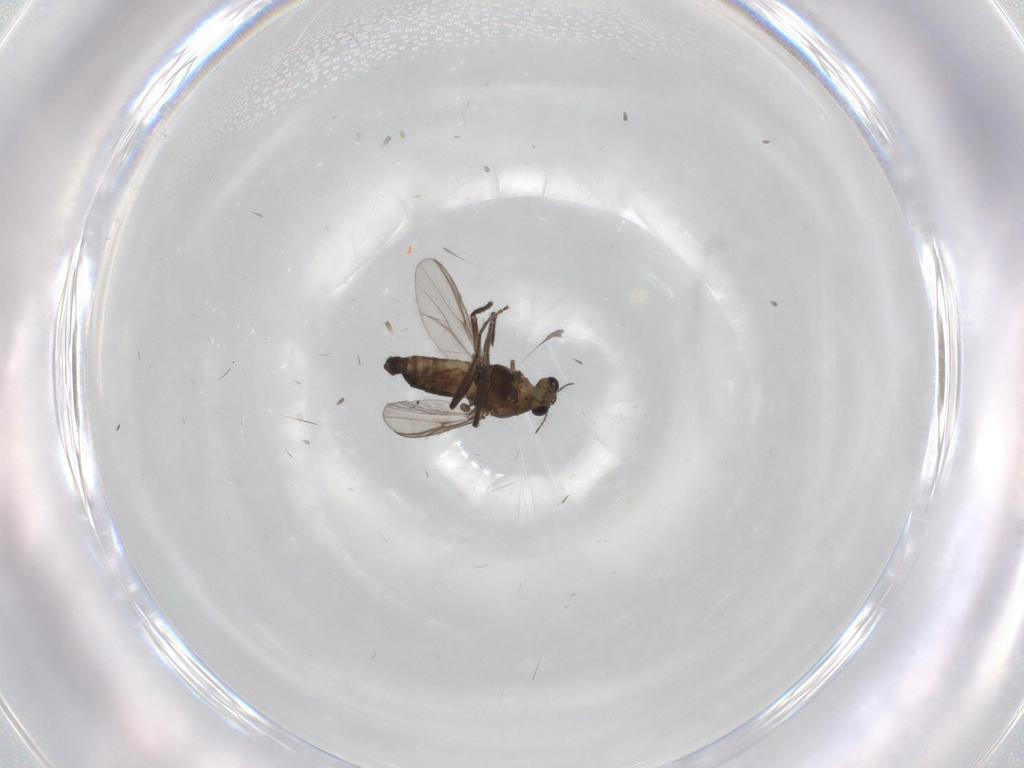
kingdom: Animalia
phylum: Arthropoda
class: Insecta
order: Diptera
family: Chironomidae
